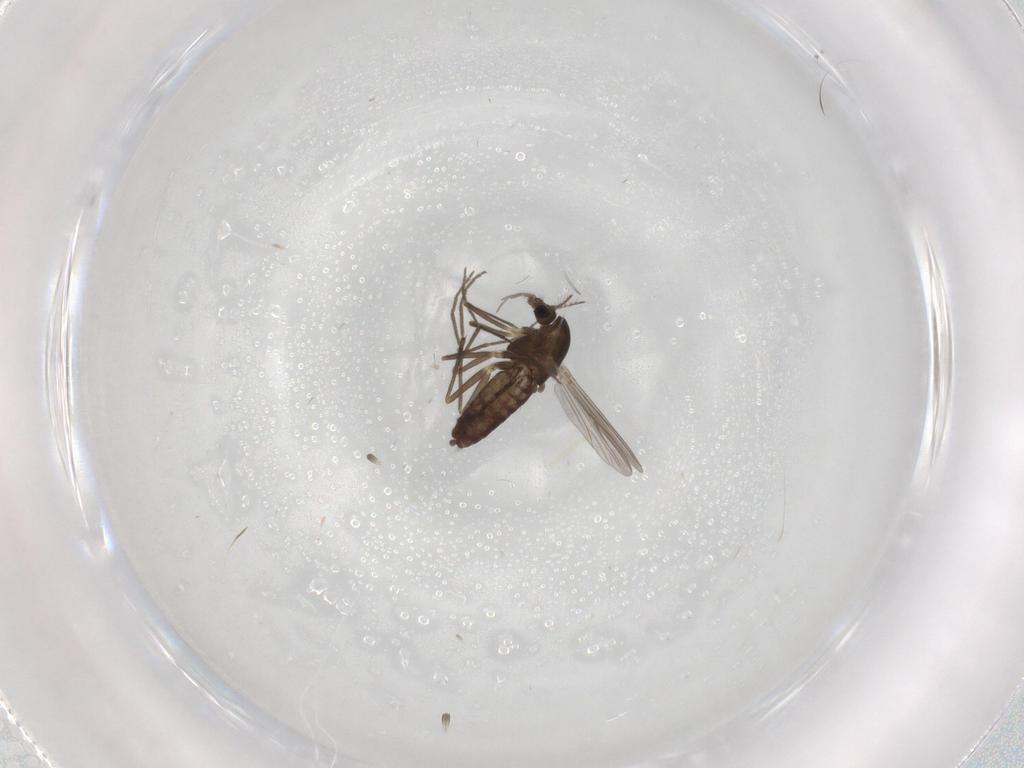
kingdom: Animalia
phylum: Arthropoda
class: Insecta
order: Diptera
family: Chironomidae
